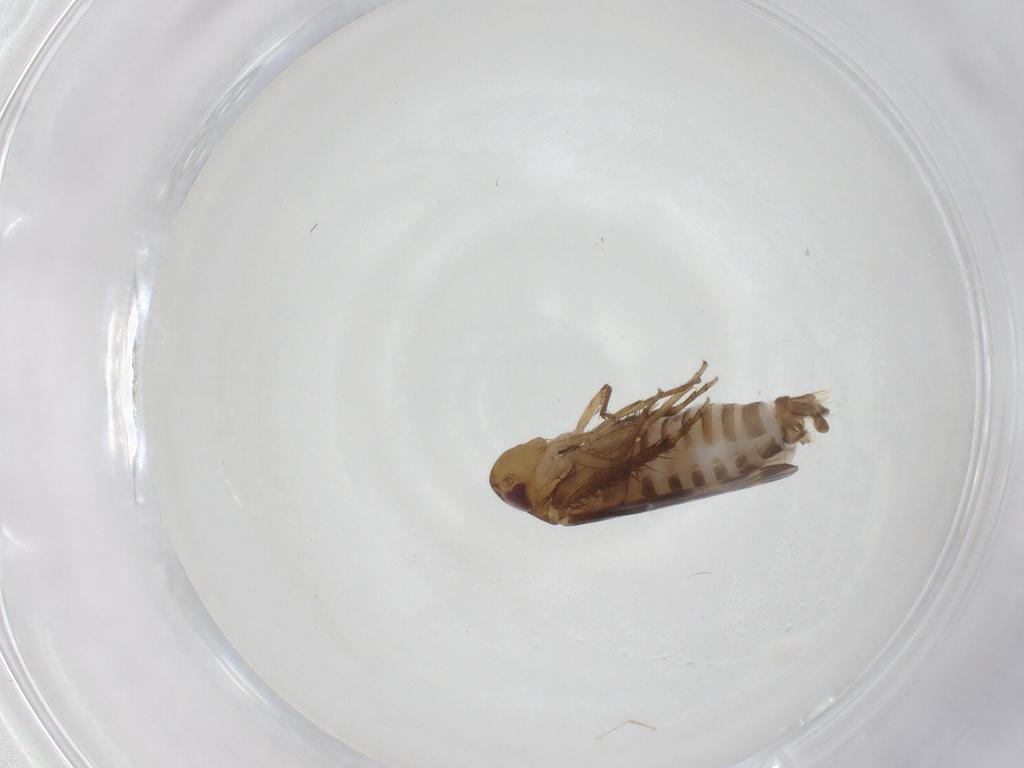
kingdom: Animalia
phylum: Arthropoda
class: Insecta
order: Hemiptera
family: Cicadellidae
